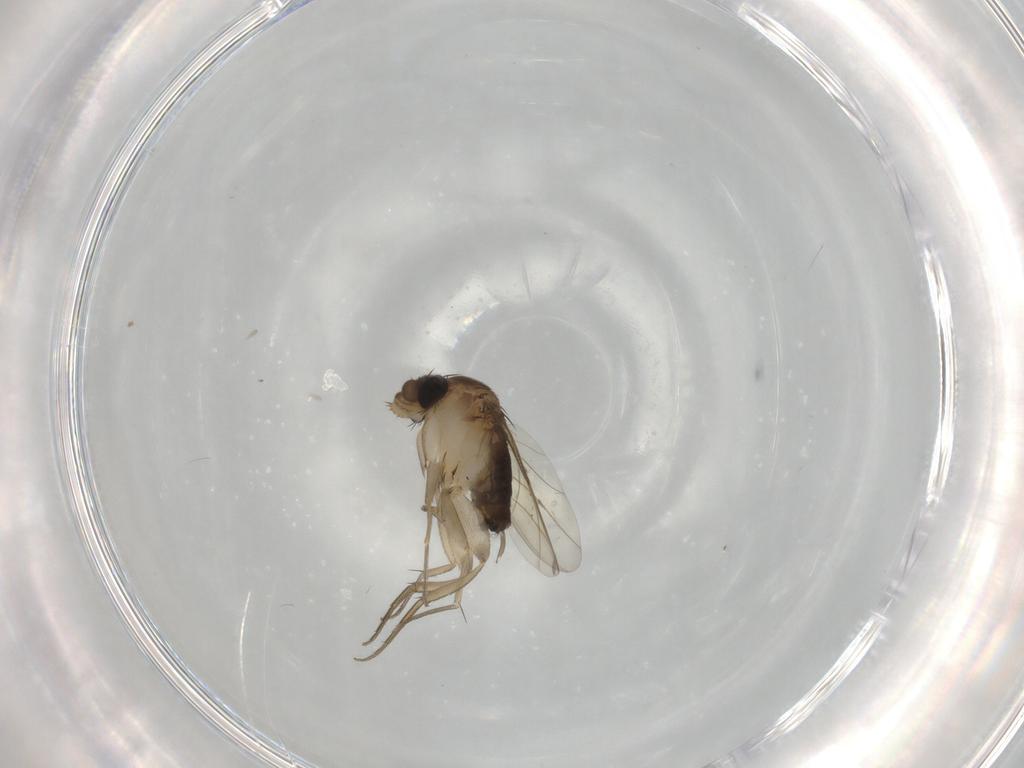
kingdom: Animalia
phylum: Arthropoda
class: Insecta
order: Diptera
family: Phoridae
